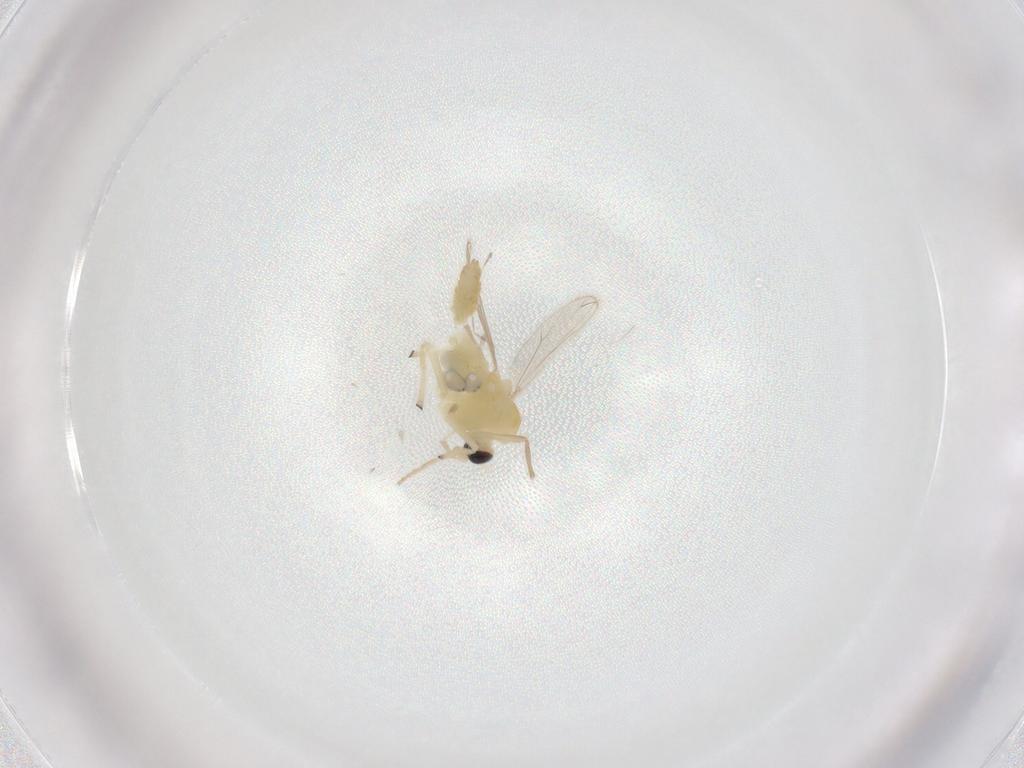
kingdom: Animalia
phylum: Arthropoda
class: Insecta
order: Diptera
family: Chironomidae
